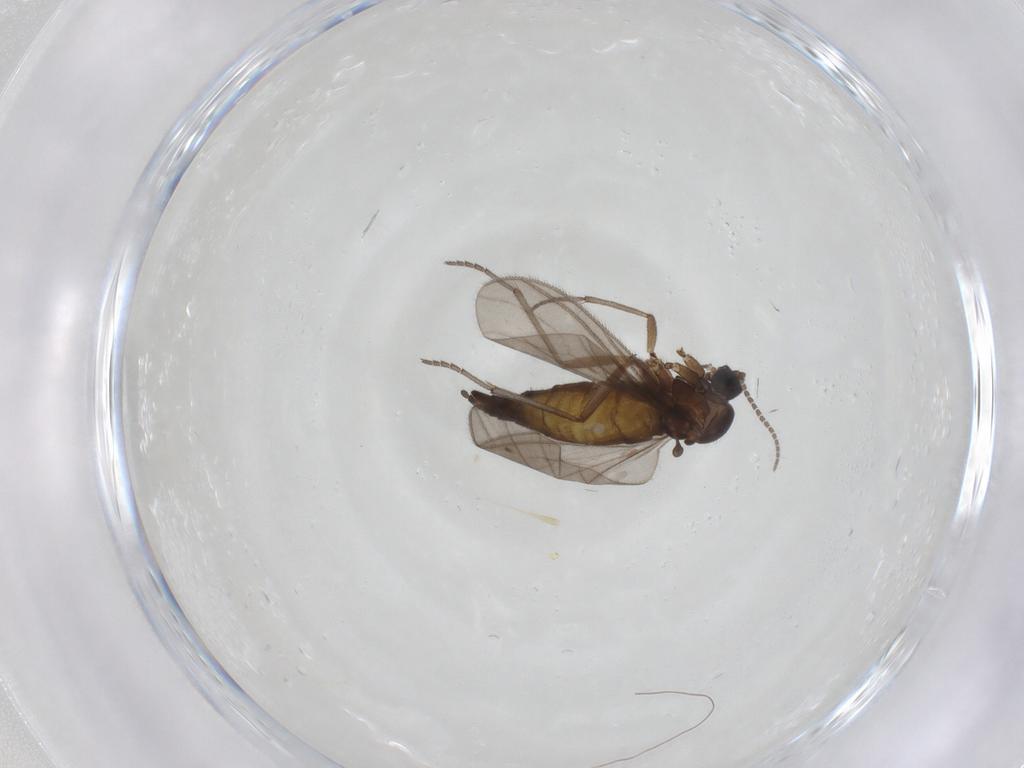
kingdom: Animalia
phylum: Arthropoda
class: Insecta
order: Diptera
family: Sciaridae
